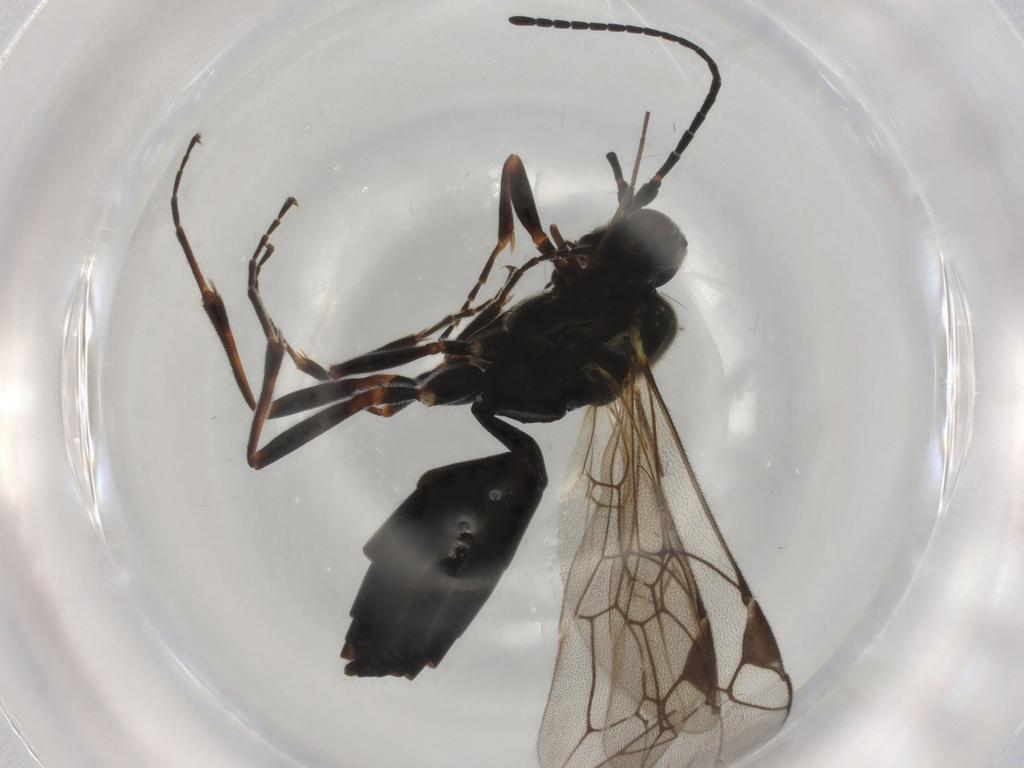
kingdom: Animalia
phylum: Arthropoda
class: Insecta
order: Hymenoptera
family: Ichneumonidae
